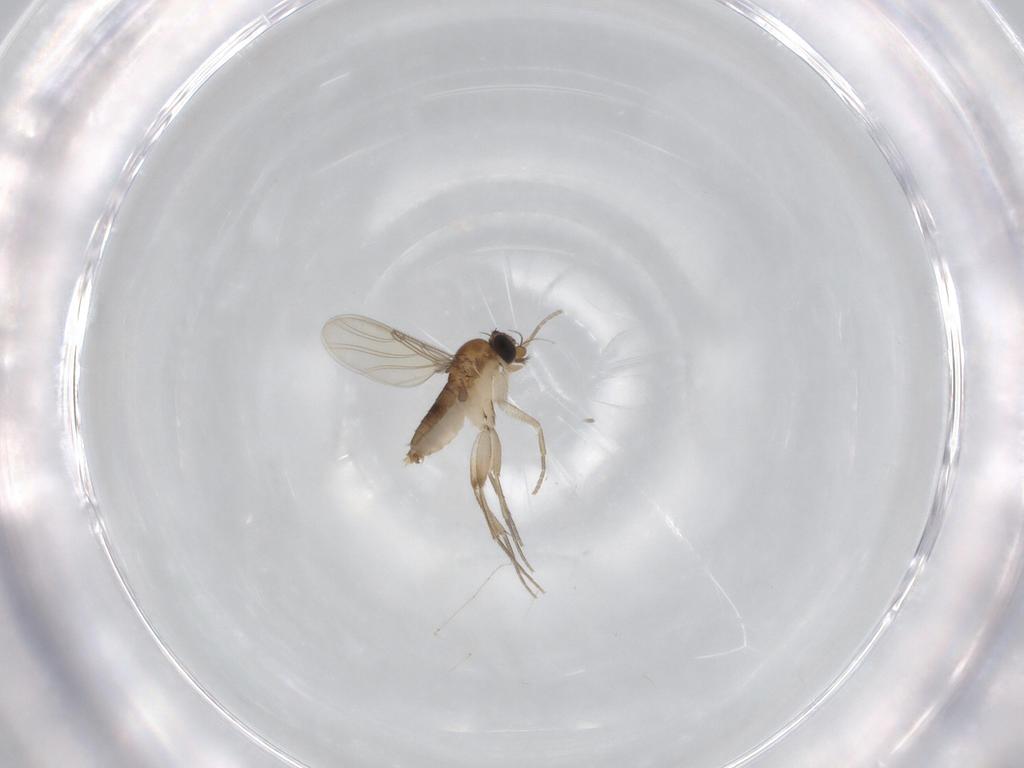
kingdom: Animalia
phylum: Arthropoda
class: Insecta
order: Diptera
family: Phoridae
